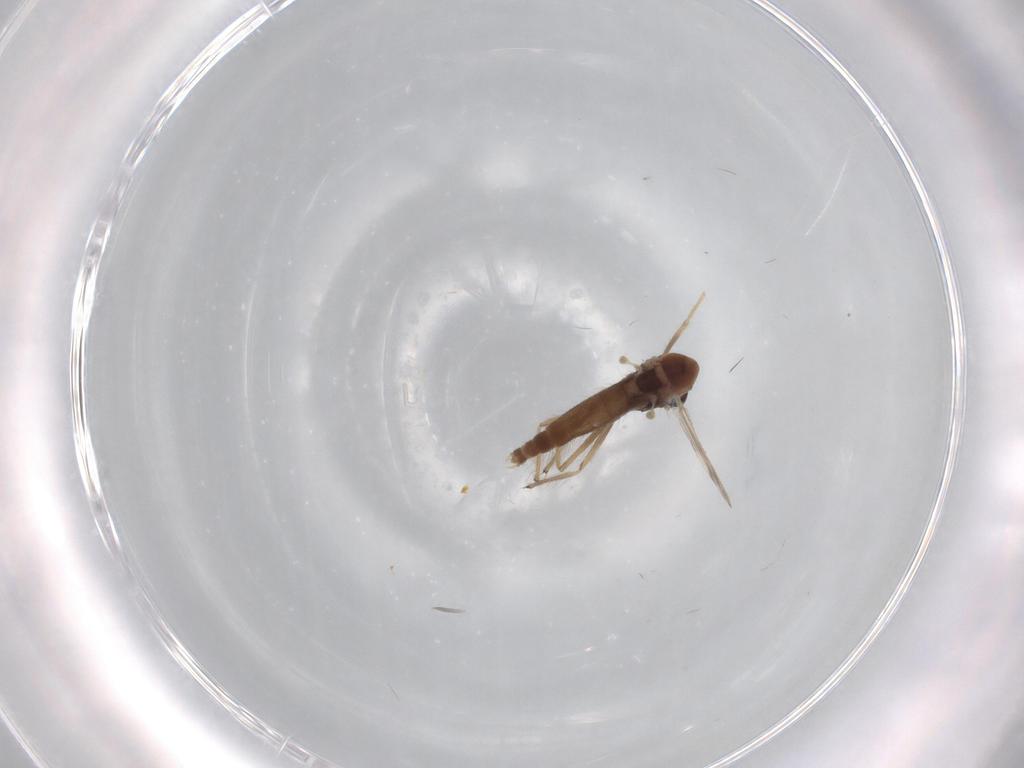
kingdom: Animalia
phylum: Arthropoda
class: Insecta
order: Diptera
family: Cecidomyiidae
